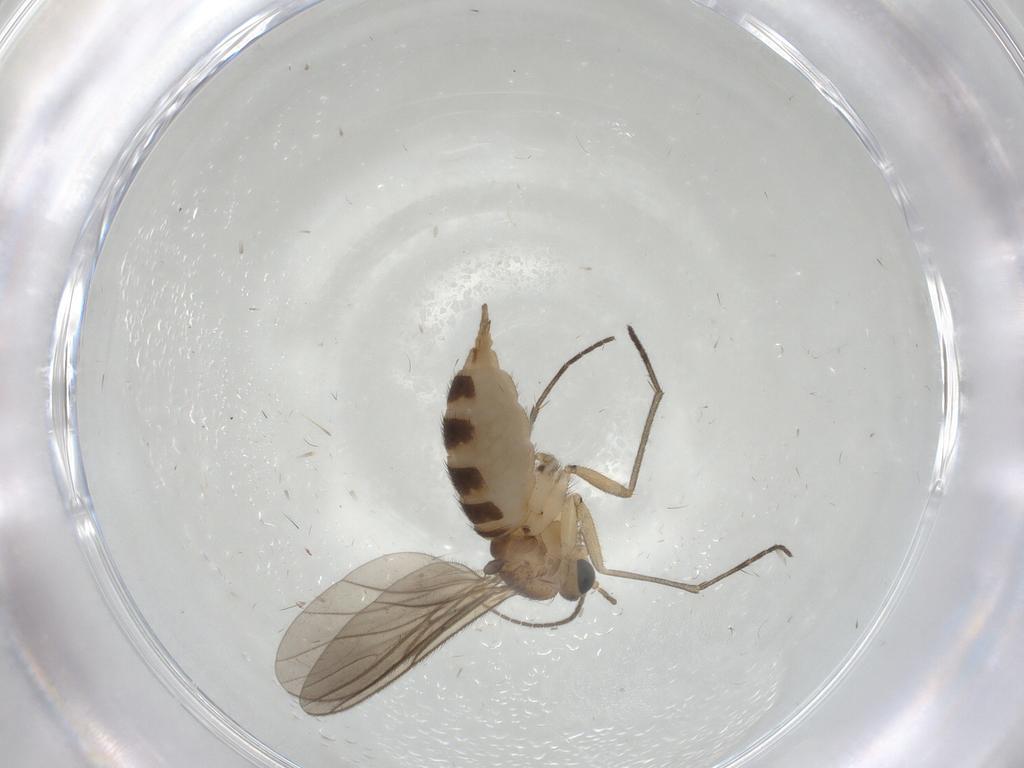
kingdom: Animalia
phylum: Arthropoda
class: Insecta
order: Diptera
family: Sciaridae
